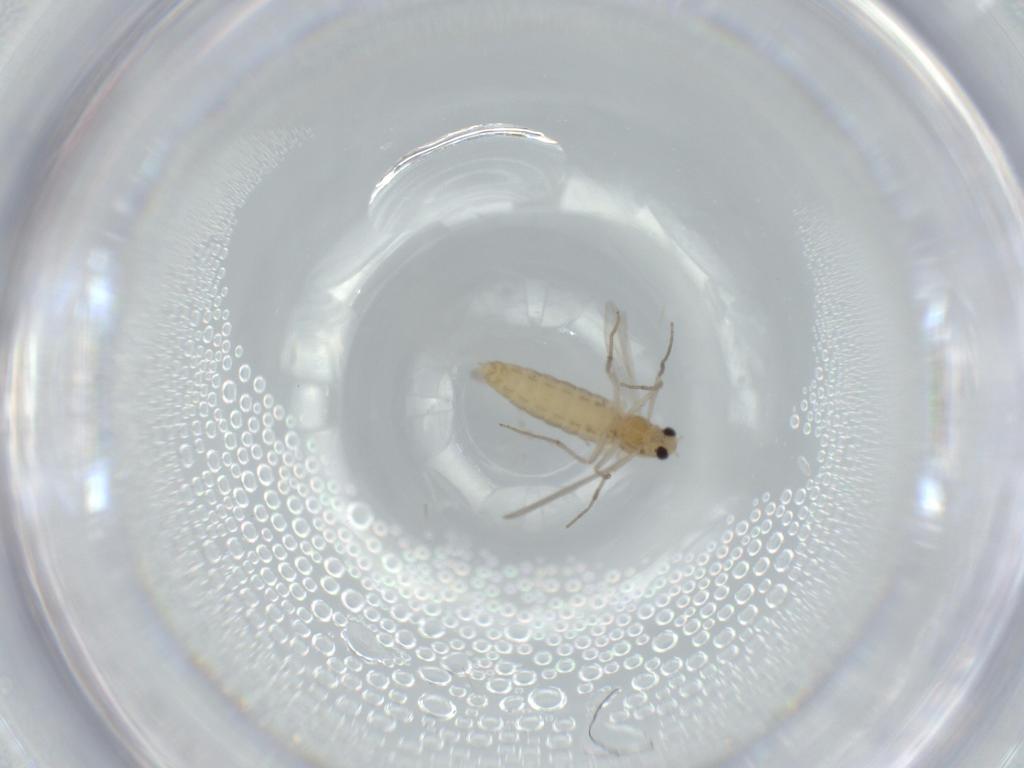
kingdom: Animalia
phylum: Arthropoda
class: Insecta
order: Diptera
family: Chironomidae
